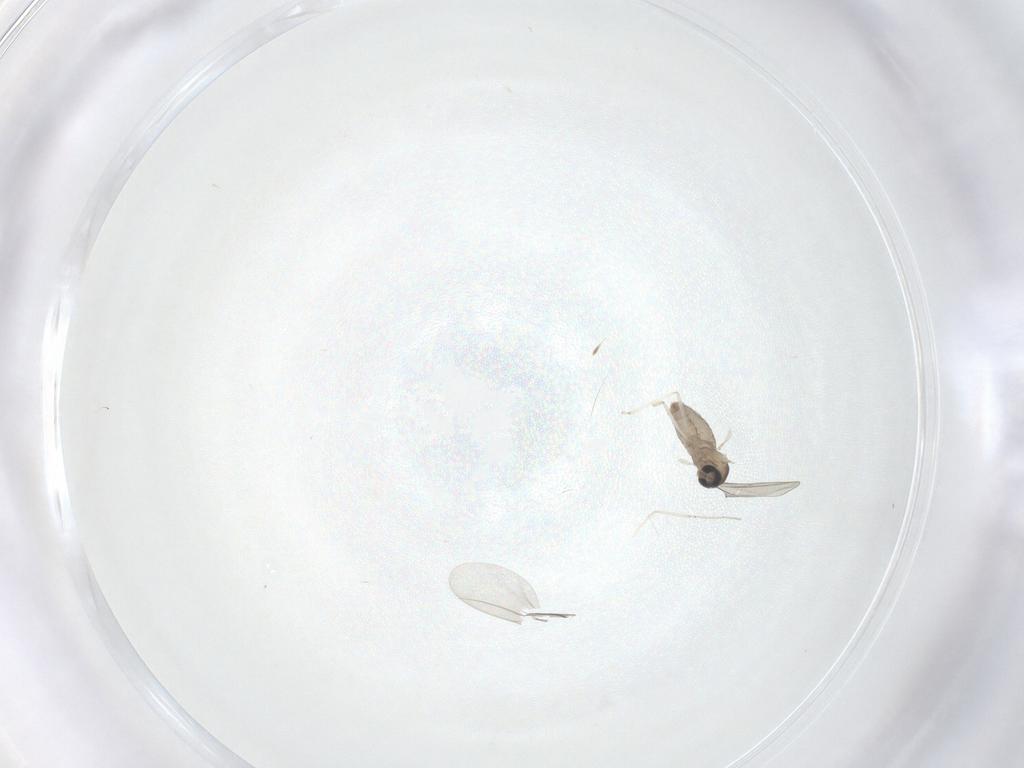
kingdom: Animalia
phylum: Arthropoda
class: Insecta
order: Diptera
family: Cecidomyiidae
